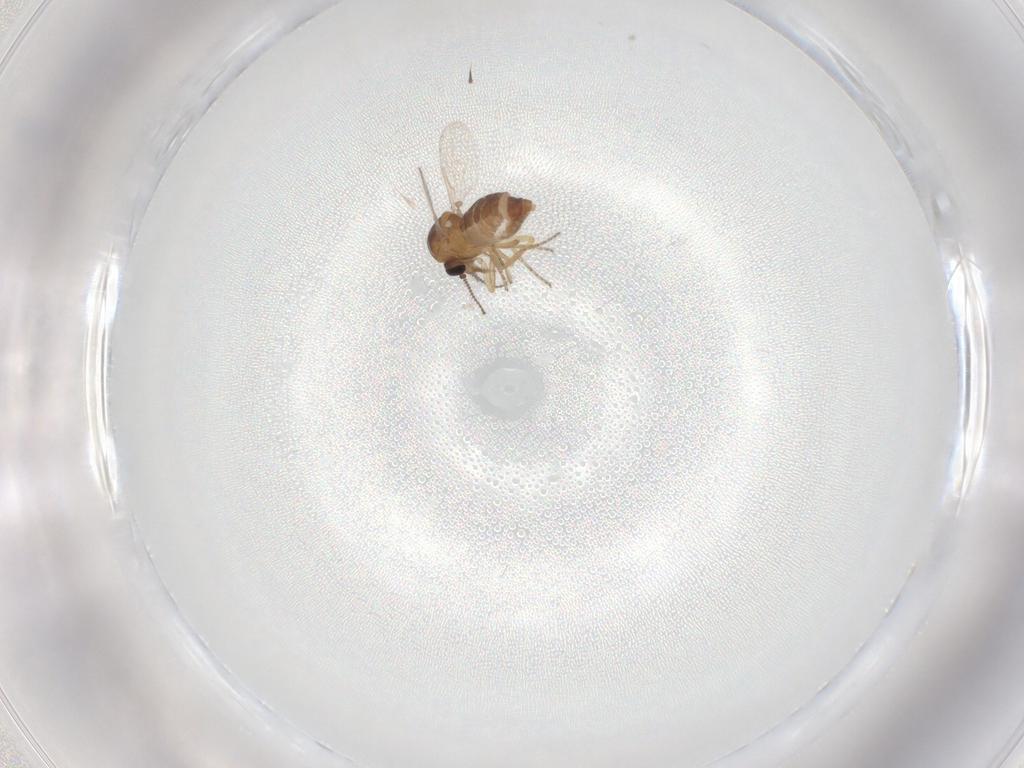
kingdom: Animalia
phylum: Arthropoda
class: Insecta
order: Diptera
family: Ceratopogonidae
